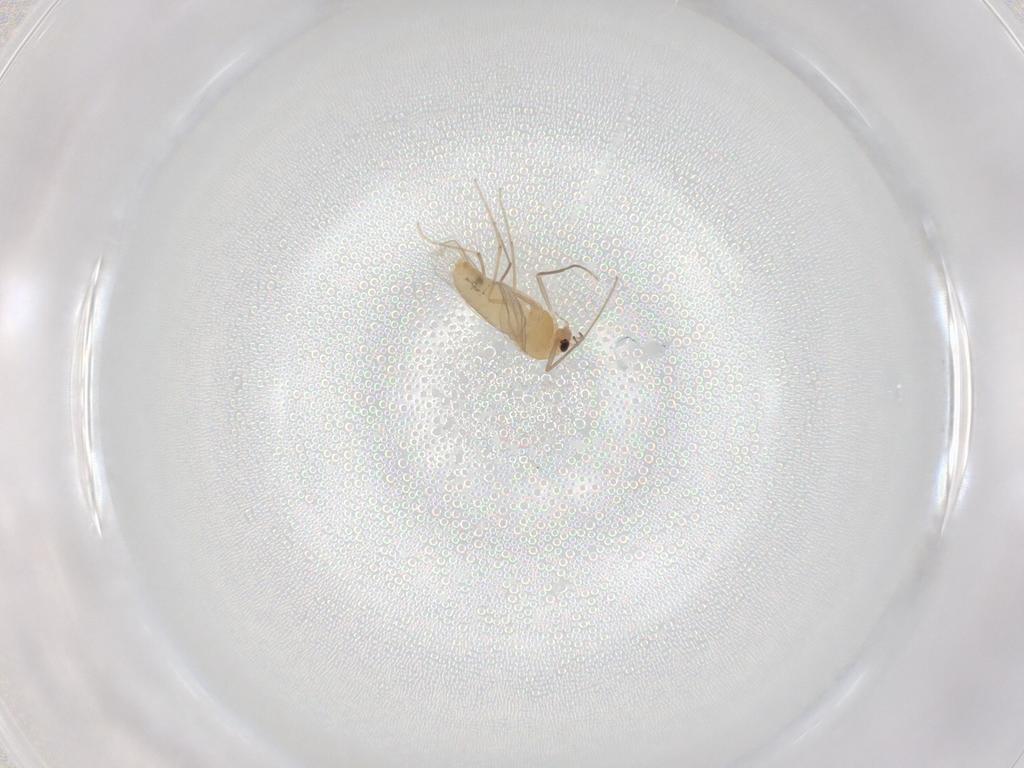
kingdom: Animalia
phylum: Arthropoda
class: Insecta
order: Diptera
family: Chironomidae
